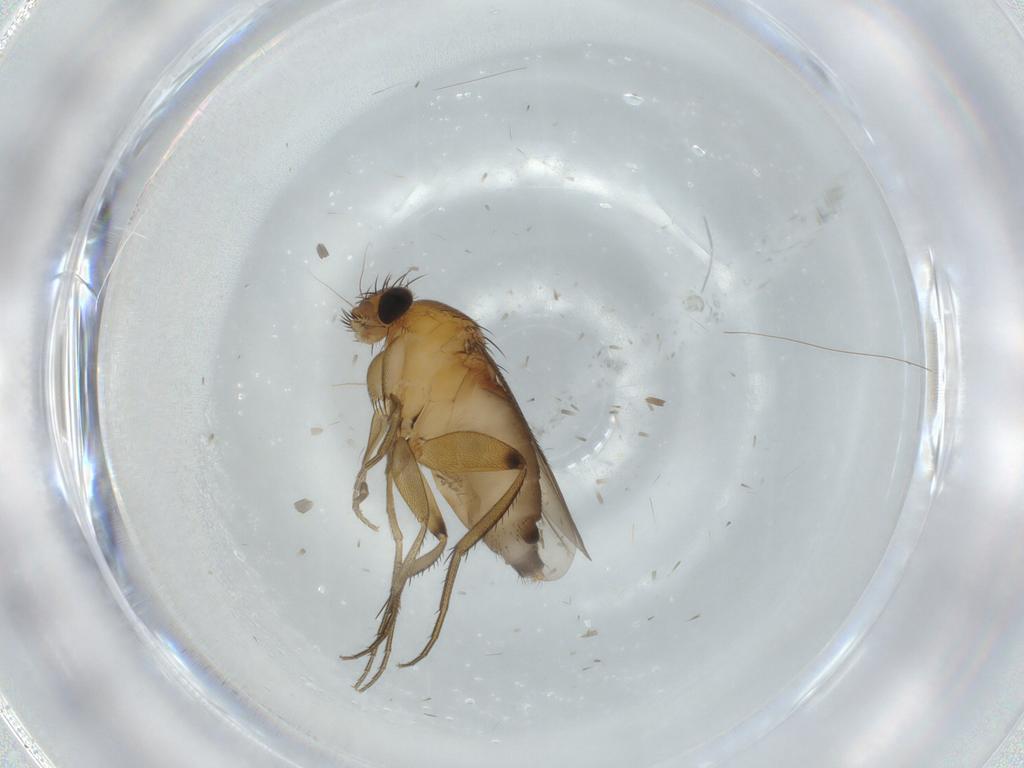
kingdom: Animalia
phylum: Arthropoda
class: Insecta
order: Diptera
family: Phoridae
